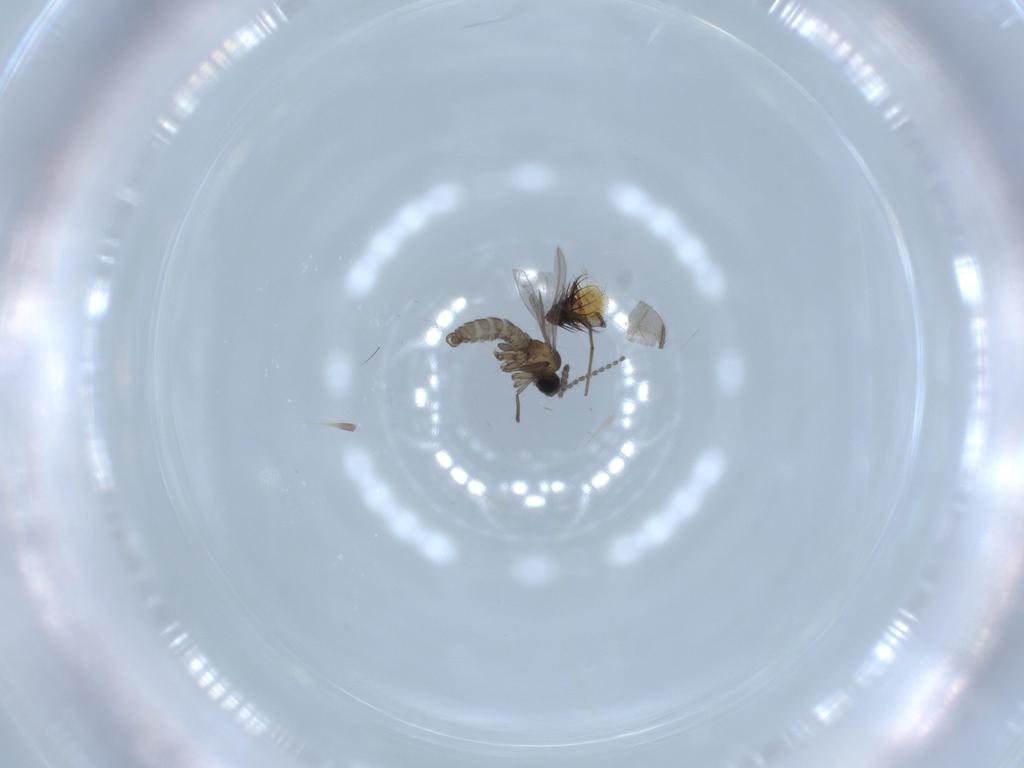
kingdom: Animalia
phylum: Arthropoda
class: Insecta
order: Diptera
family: Sciaridae
